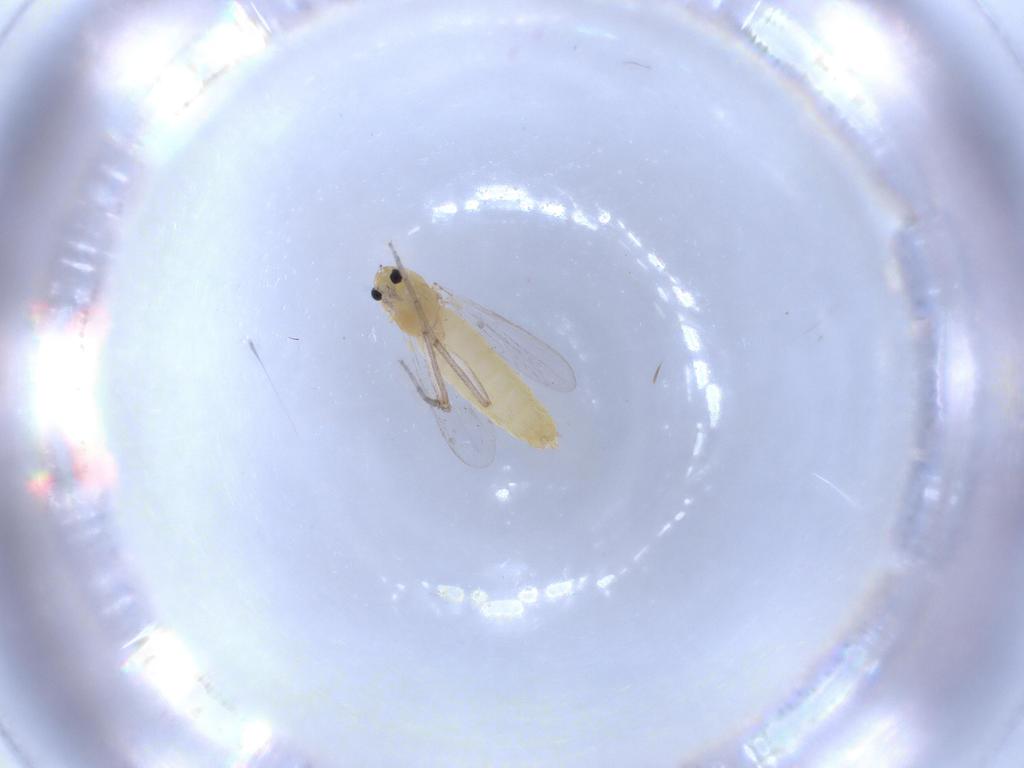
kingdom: Animalia
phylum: Arthropoda
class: Insecta
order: Diptera
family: Chironomidae
